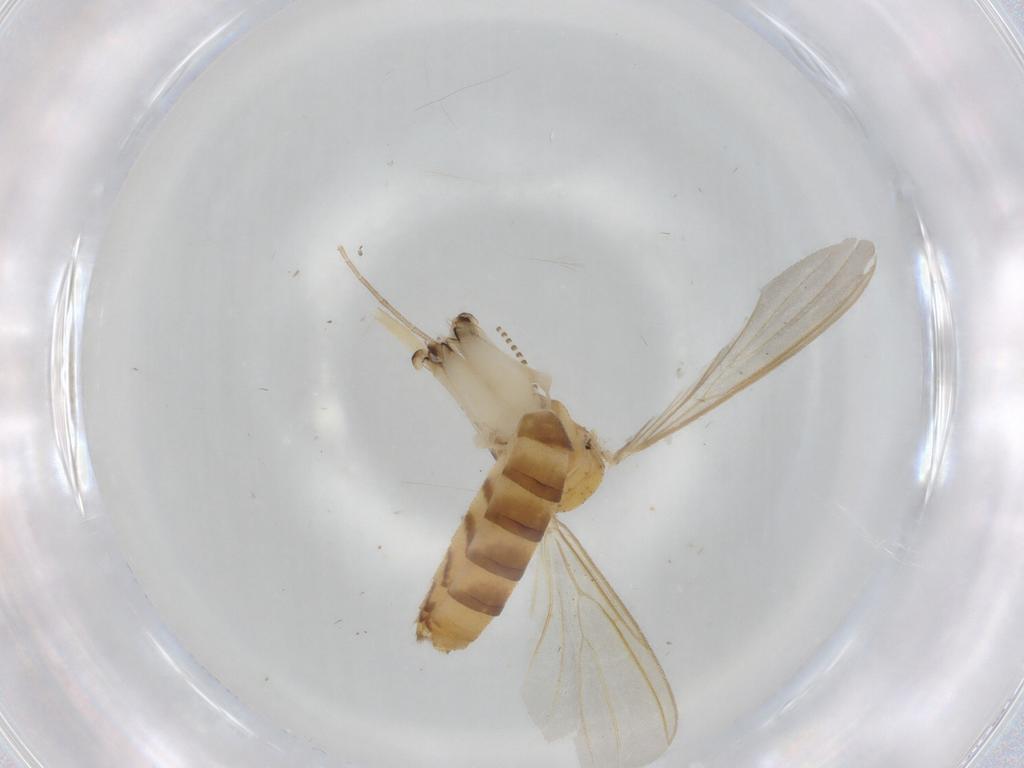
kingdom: Animalia
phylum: Arthropoda
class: Insecta
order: Diptera
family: Mycetophilidae
